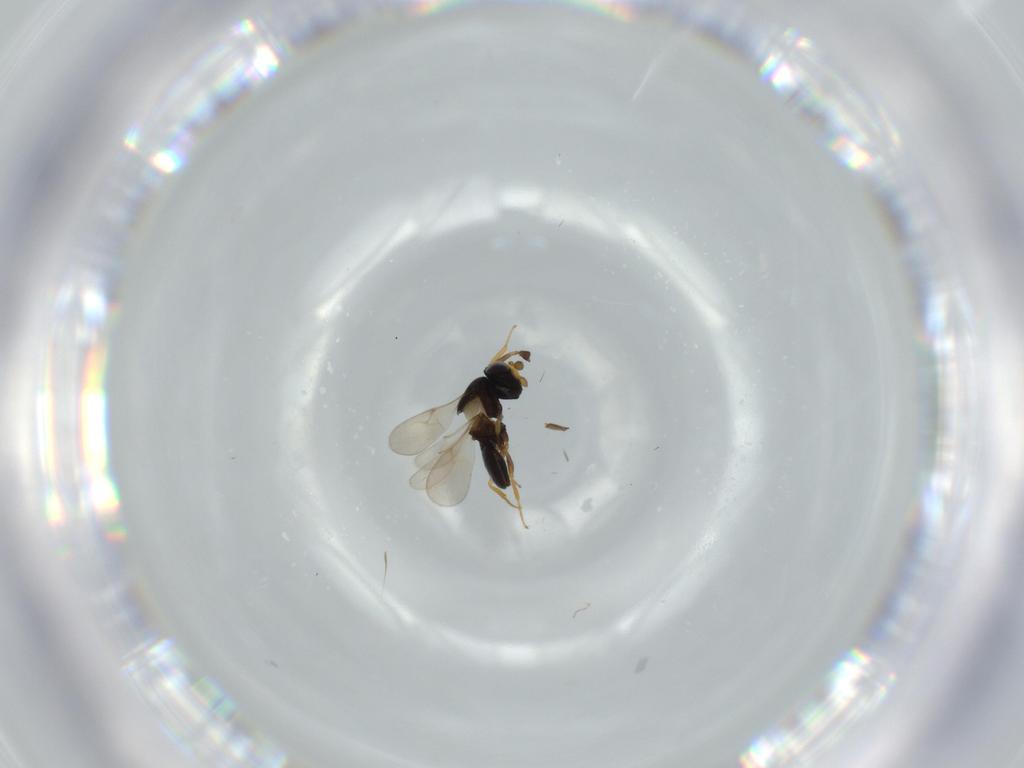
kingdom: Animalia
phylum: Arthropoda
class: Insecta
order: Hymenoptera
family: Scelionidae
